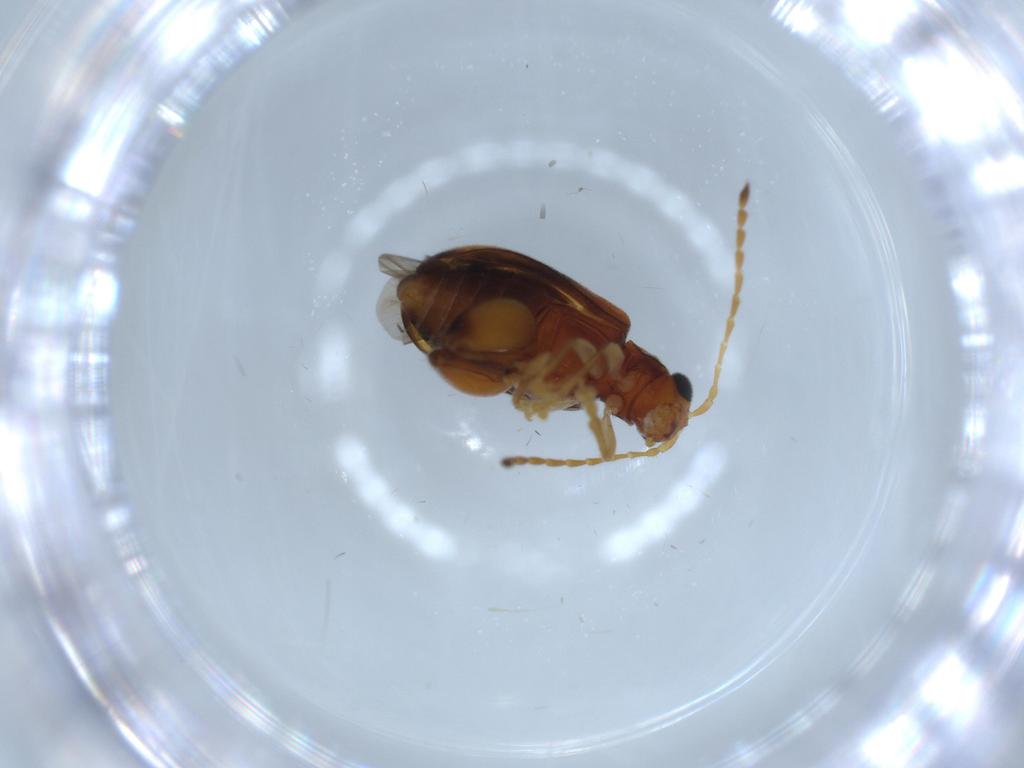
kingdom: Animalia
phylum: Arthropoda
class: Insecta
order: Coleoptera
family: Chrysomelidae
